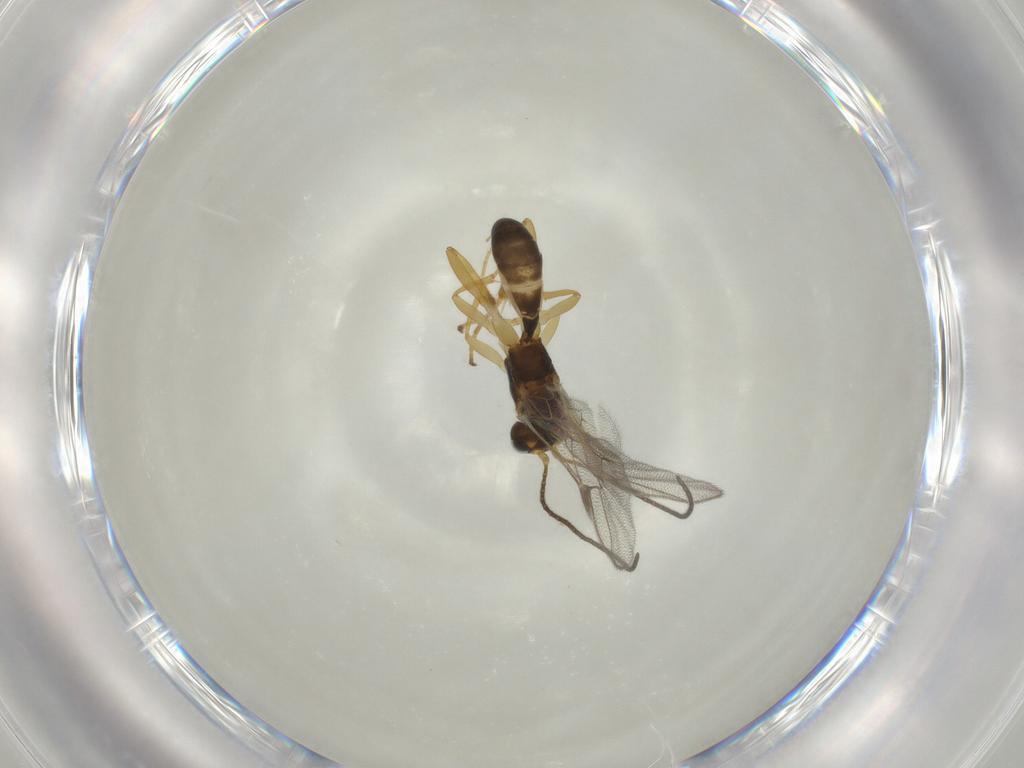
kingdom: Animalia
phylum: Arthropoda
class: Insecta
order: Hymenoptera
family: Ichneumonidae
